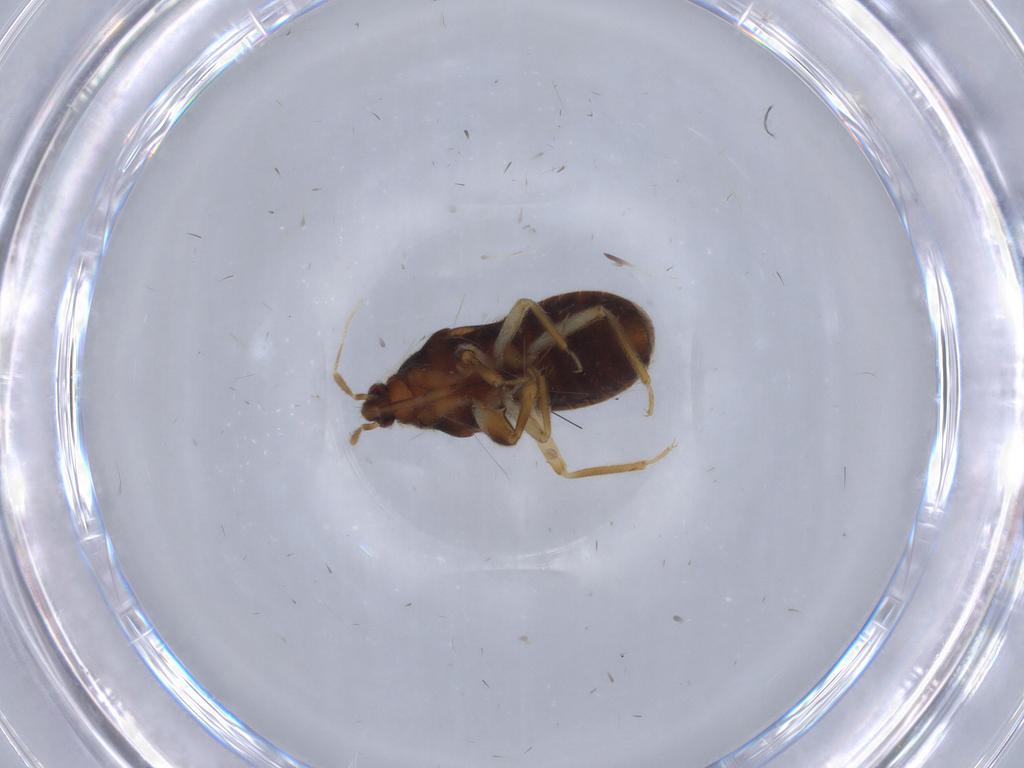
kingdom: Animalia
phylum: Arthropoda
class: Insecta
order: Hemiptera
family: Nabidae
